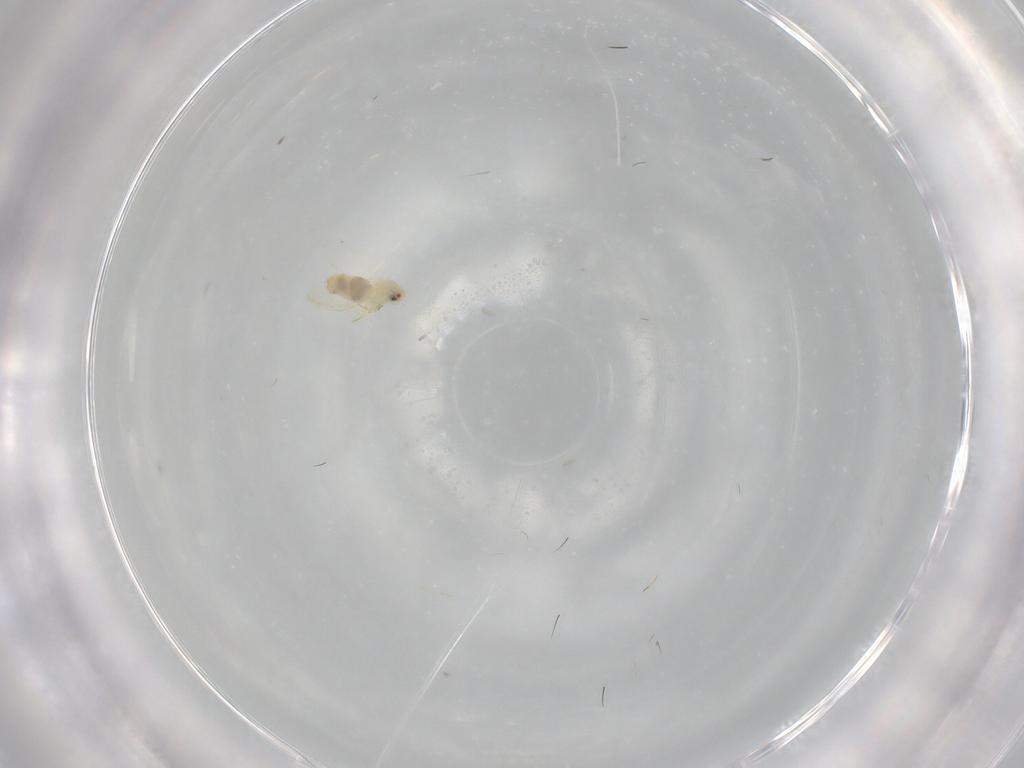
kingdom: Animalia
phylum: Arthropoda
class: Insecta
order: Hemiptera
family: Aleyrodidae
